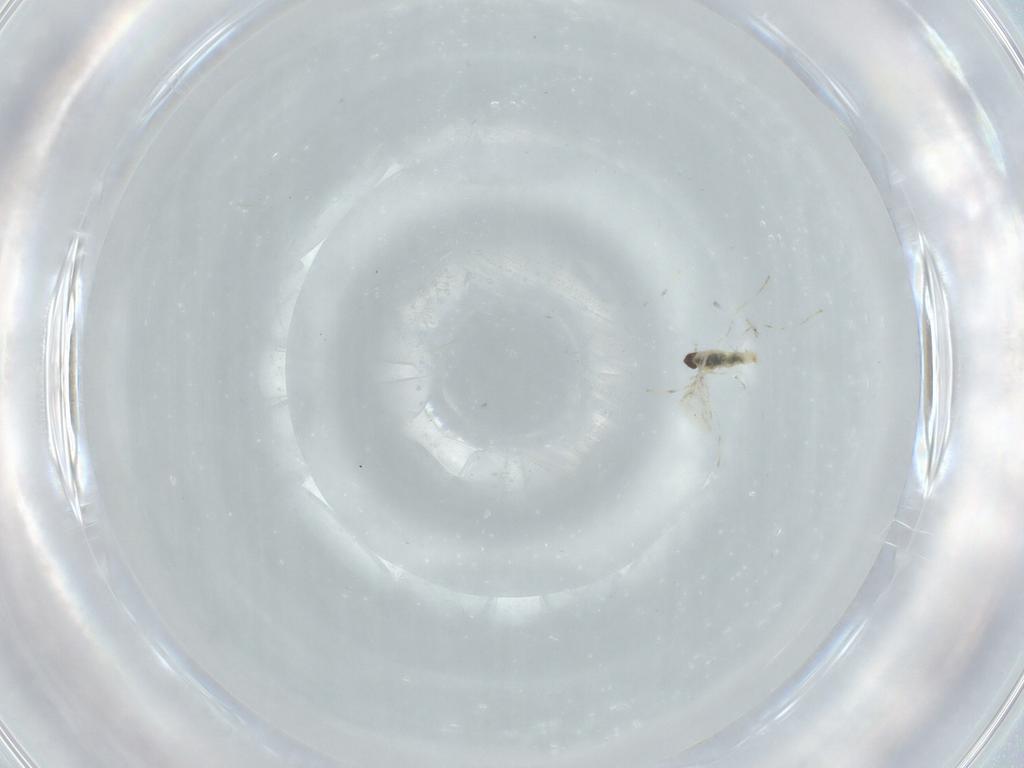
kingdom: Animalia
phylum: Arthropoda
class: Insecta
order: Diptera
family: Cecidomyiidae
